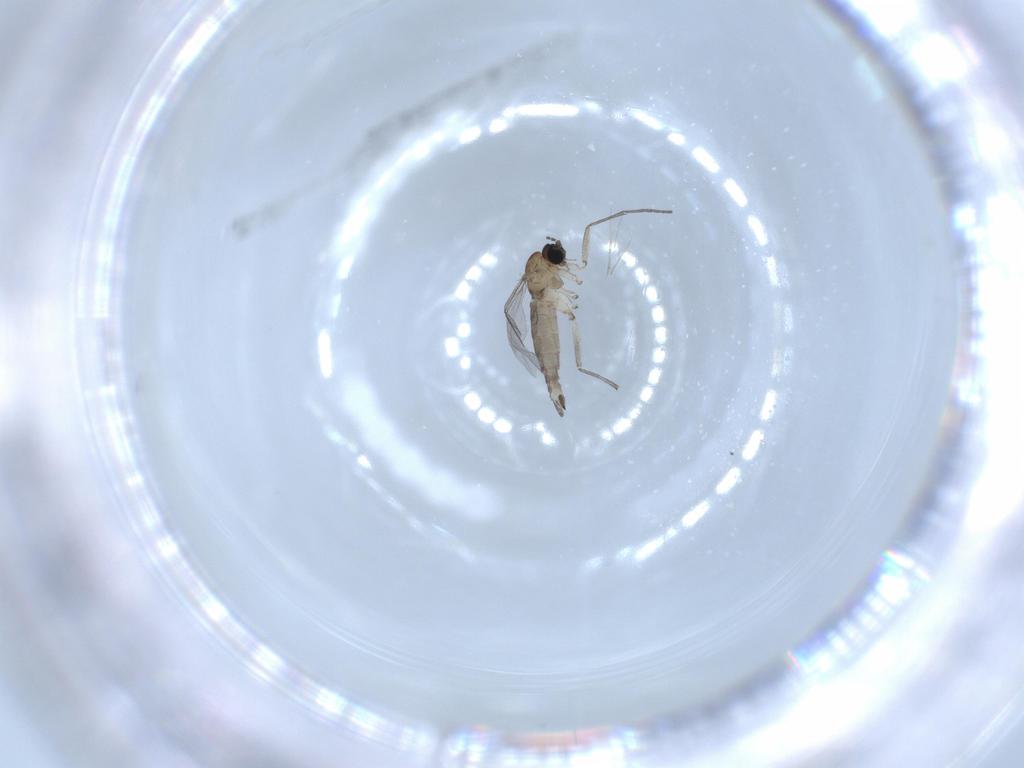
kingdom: Animalia
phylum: Arthropoda
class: Insecta
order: Diptera
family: Sciaridae
